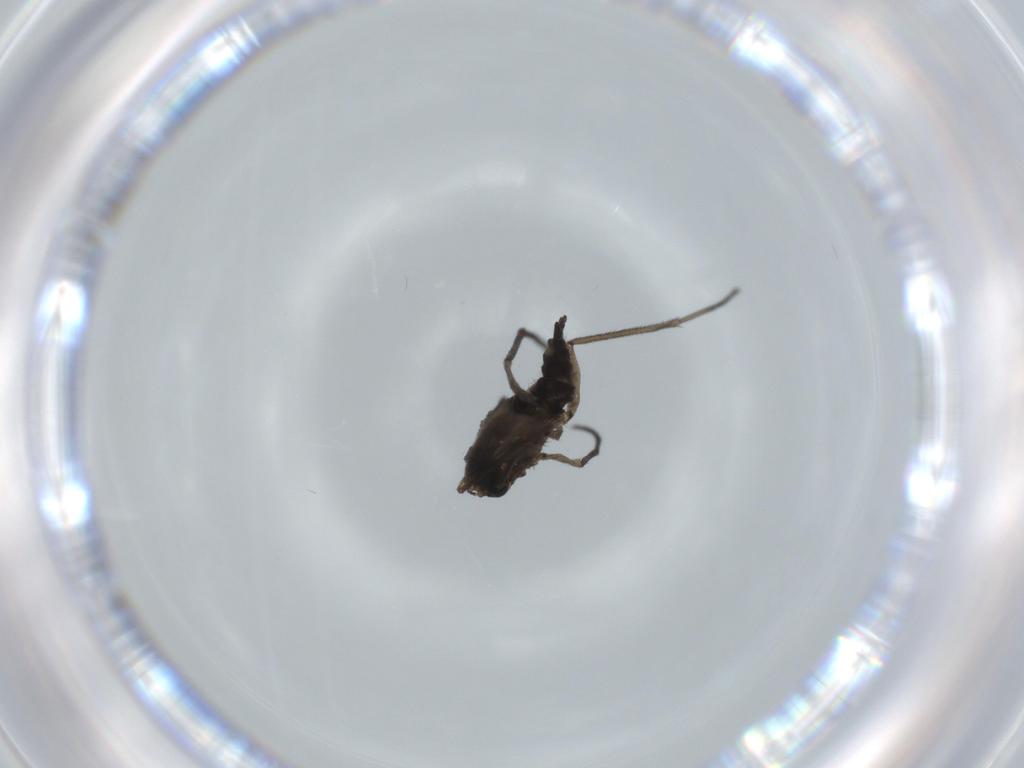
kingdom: Animalia
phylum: Arthropoda
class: Insecta
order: Diptera
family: Sciaridae
